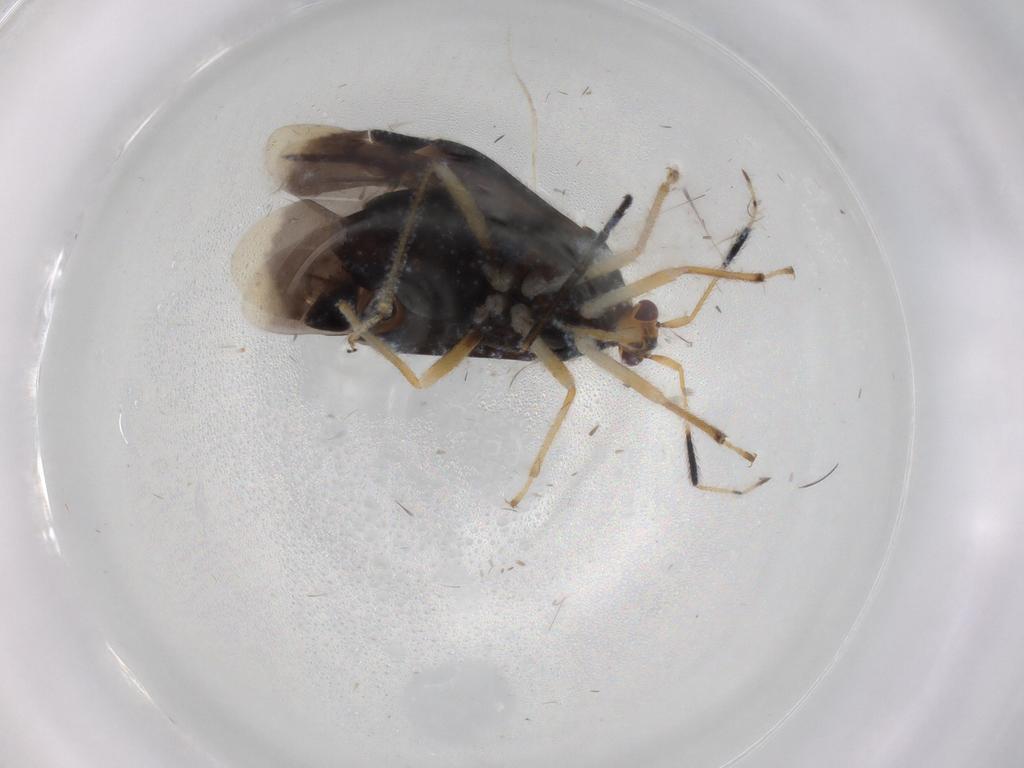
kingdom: Animalia
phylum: Arthropoda
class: Insecta
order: Hemiptera
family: Miridae
